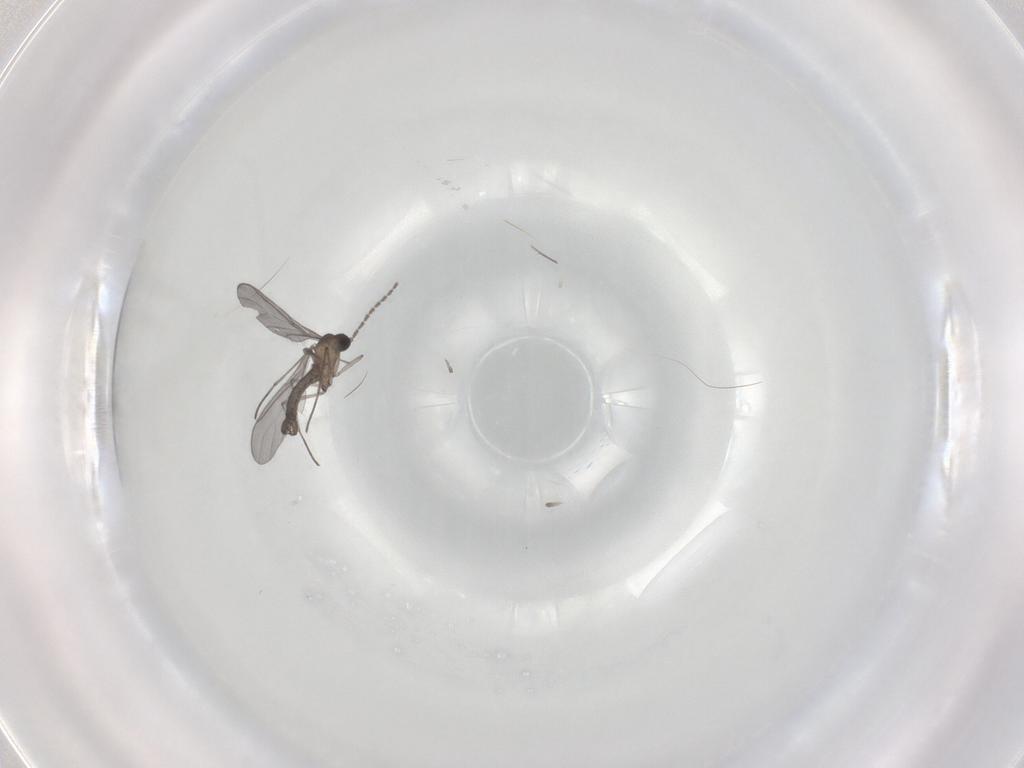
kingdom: Animalia
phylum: Arthropoda
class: Insecta
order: Diptera
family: Sciaridae
